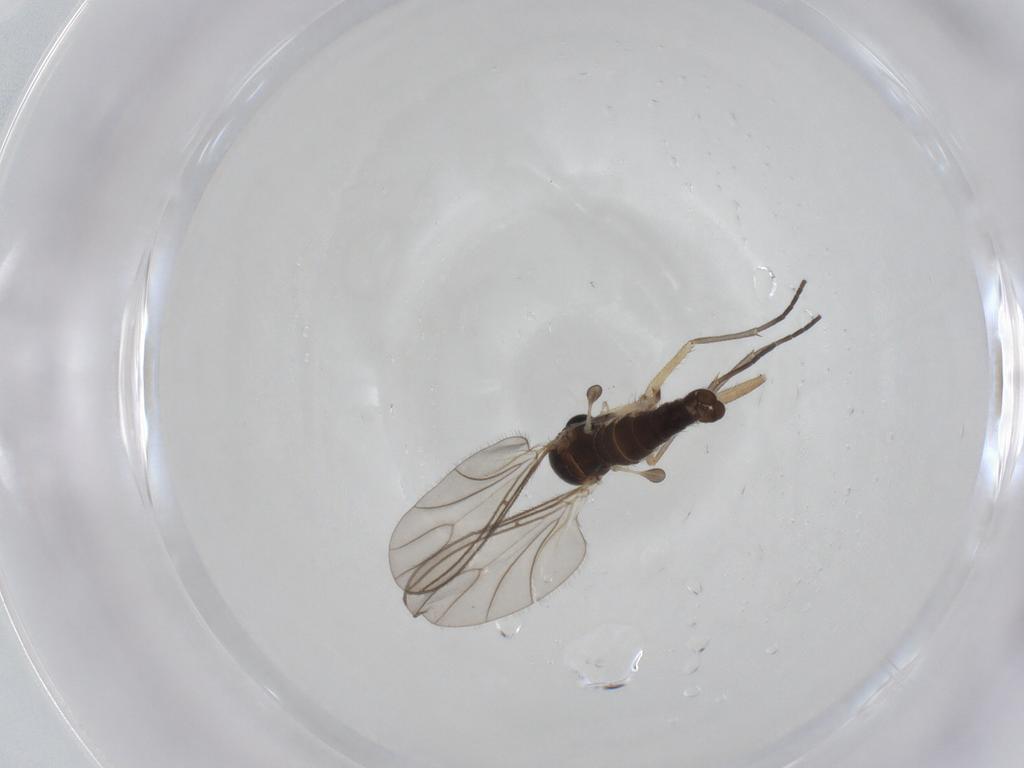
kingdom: Animalia
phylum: Arthropoda
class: Insecta
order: Diptera
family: Sciaridae
